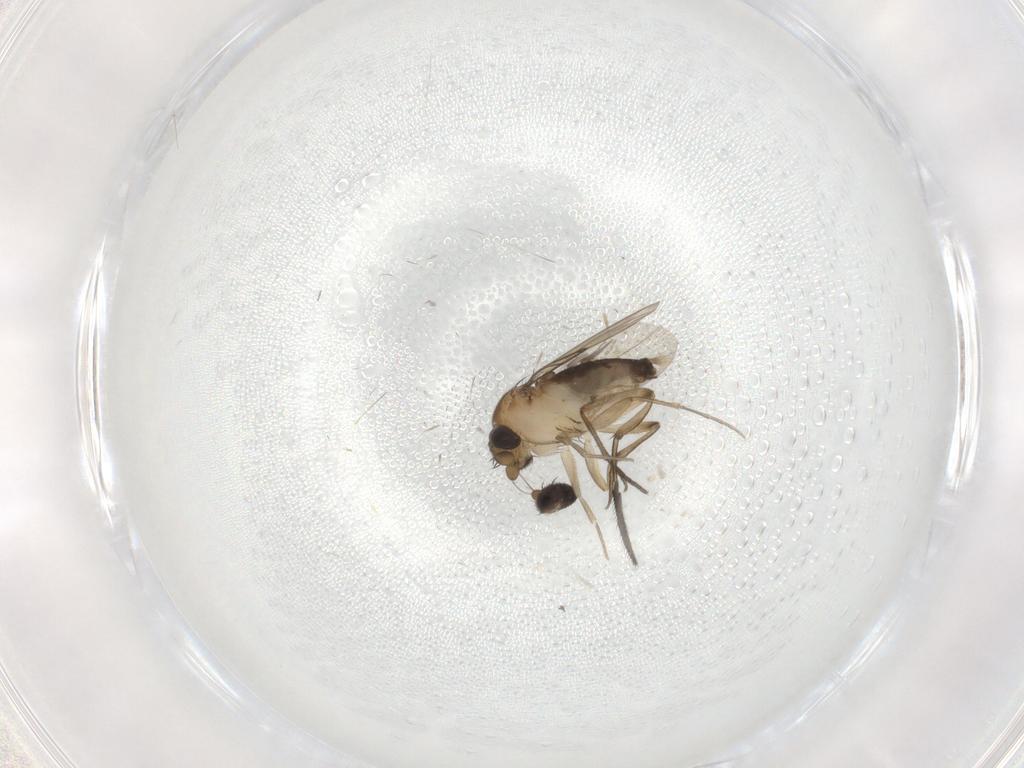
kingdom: Animalia
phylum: Arthropoda
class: Insecta
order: Diptera
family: Phoridae
